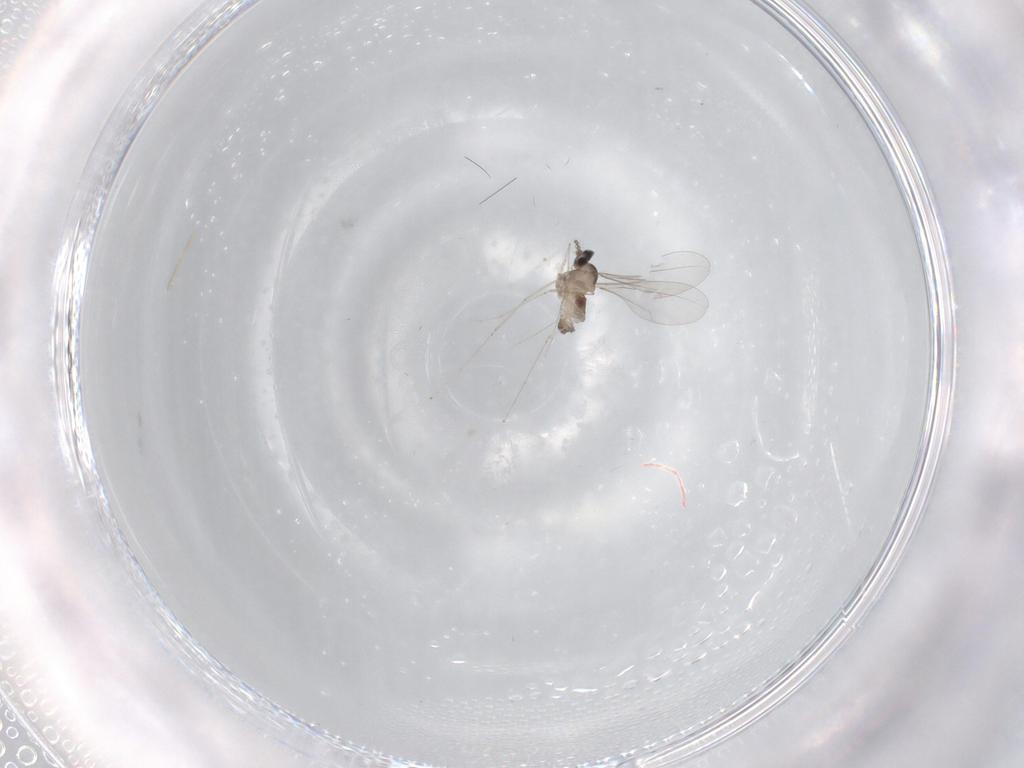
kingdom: Animalia
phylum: Arthropoda
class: Insecta
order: Diptera
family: Cecidomyiidae
